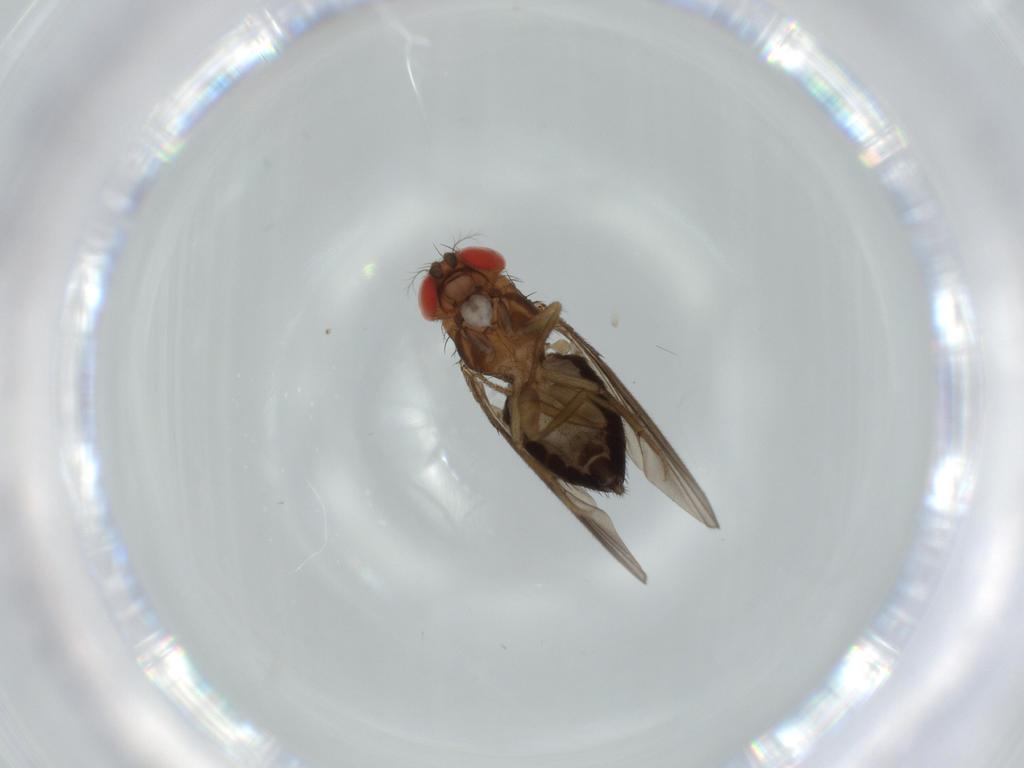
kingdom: Animalia
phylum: Arthropoda
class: Insecta
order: Diptera
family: Drosophilidae
